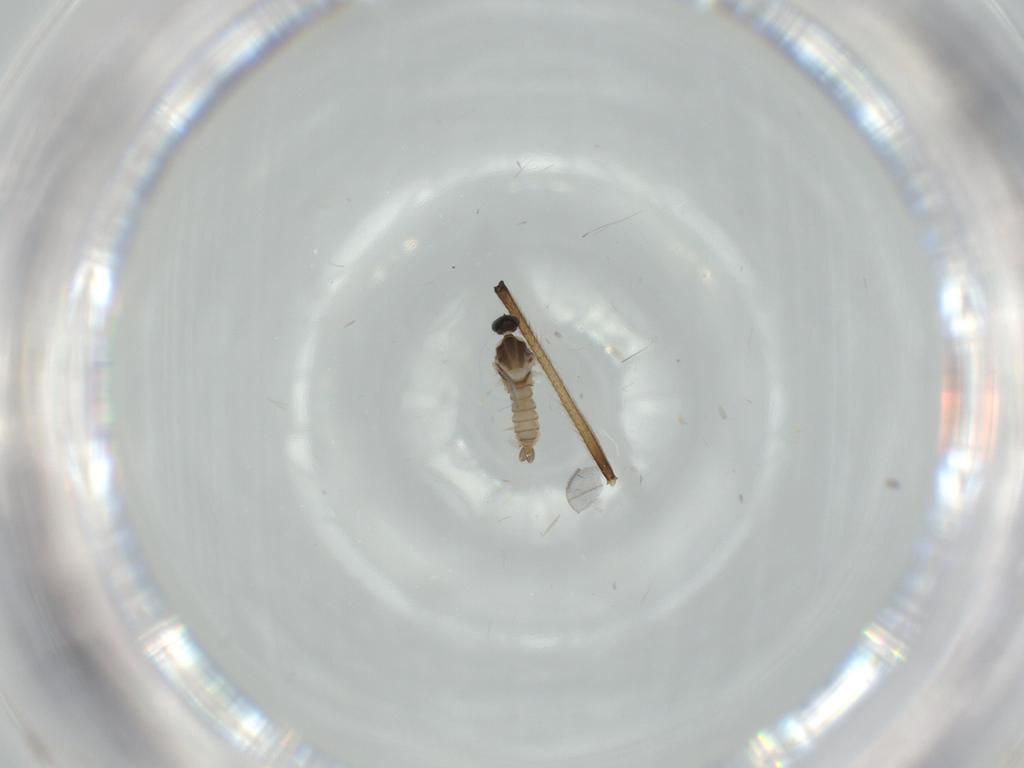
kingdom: Animalia
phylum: Arthropoda
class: Insecta
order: Diptera
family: Cecidomyiidae
